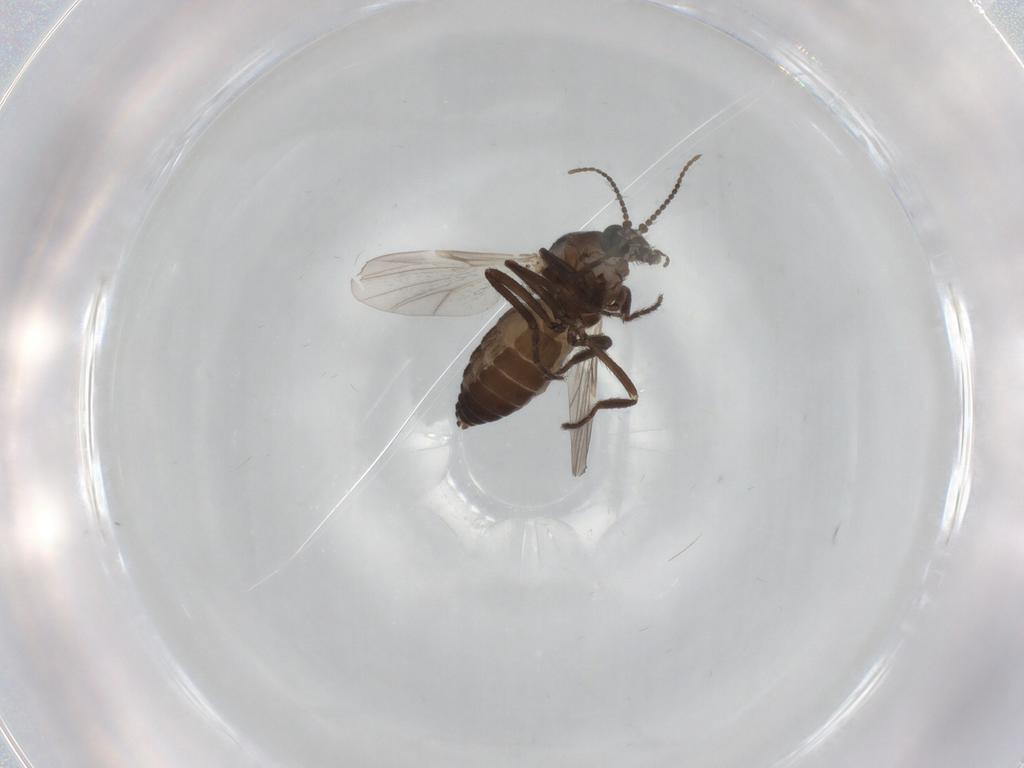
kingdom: Animalia
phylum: Arthropoda
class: Insecta
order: Diptera
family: Ceratopogonidae
